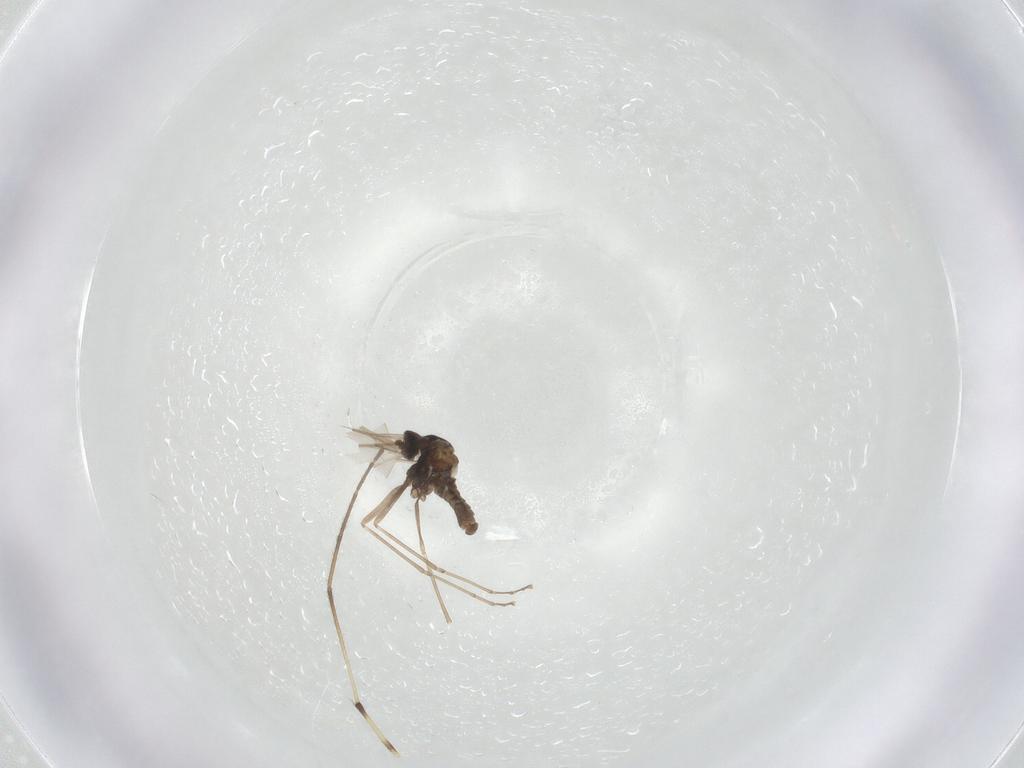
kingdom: Animalia
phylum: Arthropoda
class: Insecta
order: Diptera
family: Cecidomyiidae
